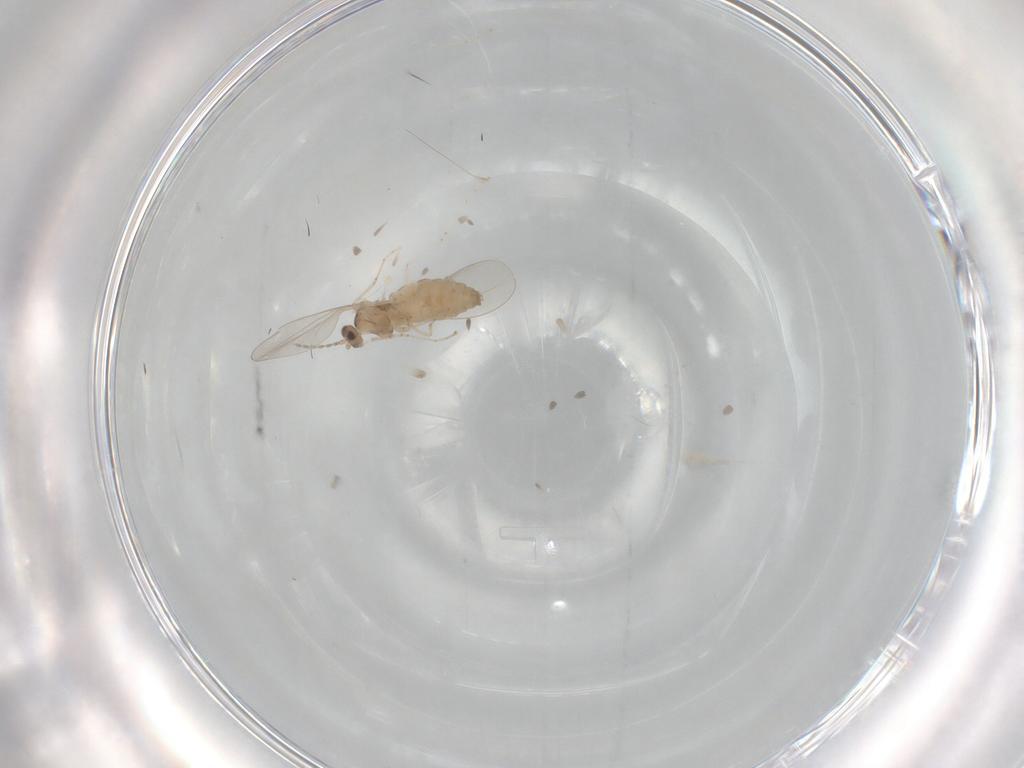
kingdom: Animalia
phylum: Arthropoda
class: Insecta
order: Diptera
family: Cecidomyiidae
